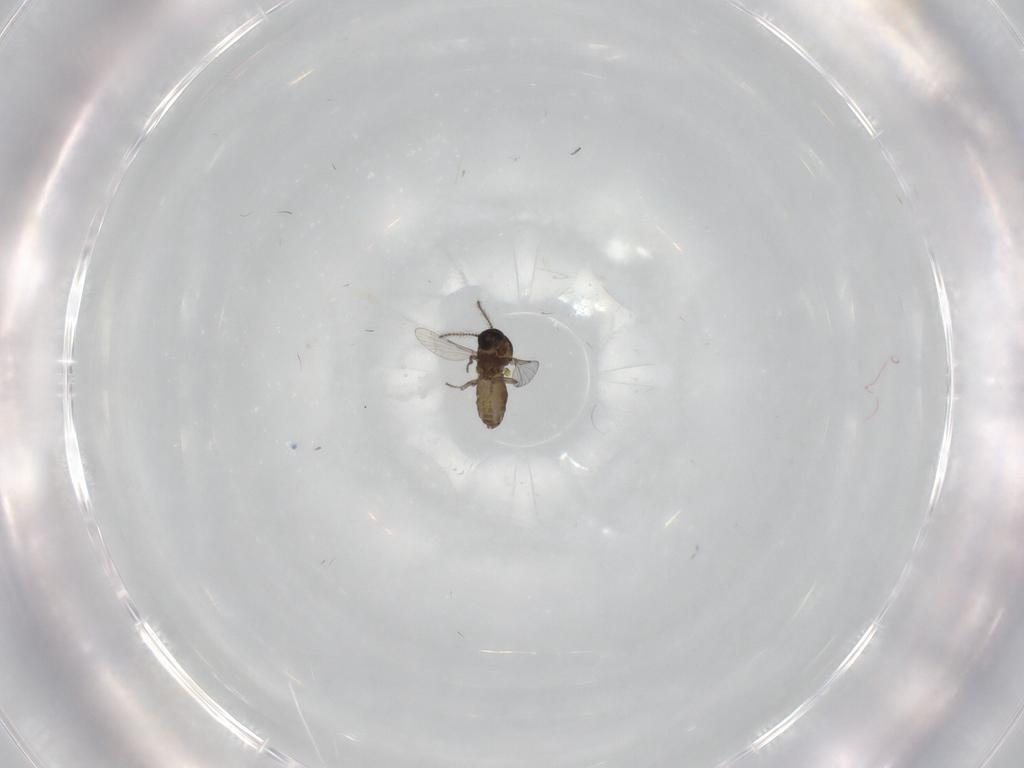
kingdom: Animalia
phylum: Arthropoda
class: Insecta
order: Diptera
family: Ceratopogonidae
